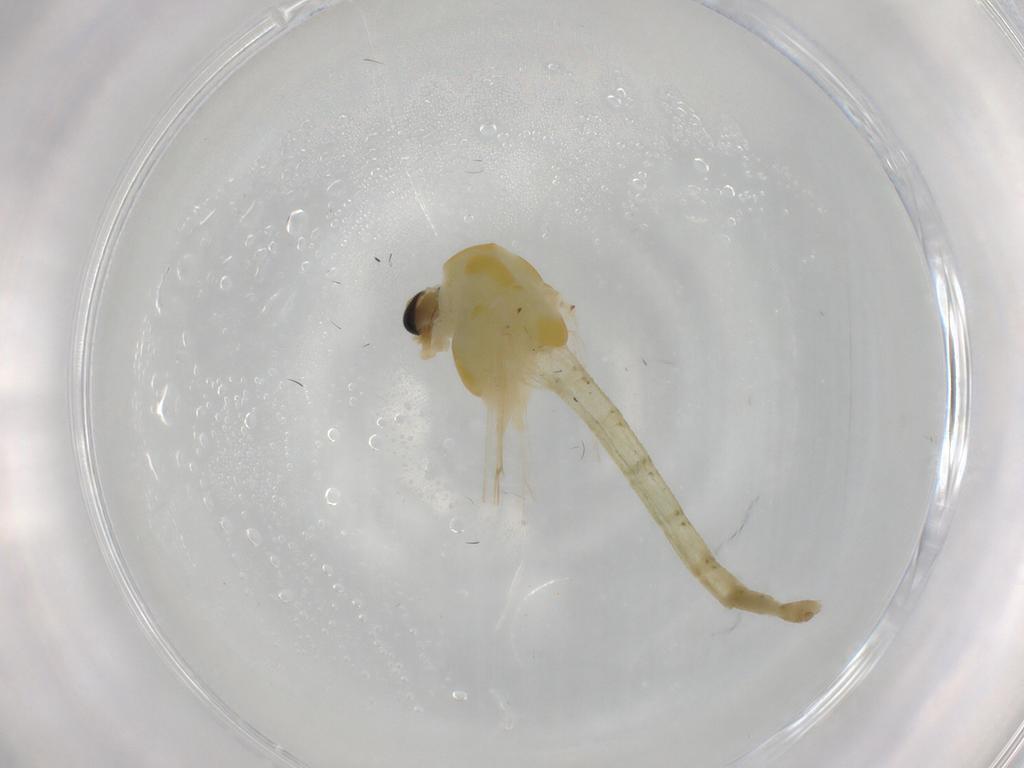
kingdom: Animalia
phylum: Arthropoda
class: Insecta
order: Diptera
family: Chironomidae
